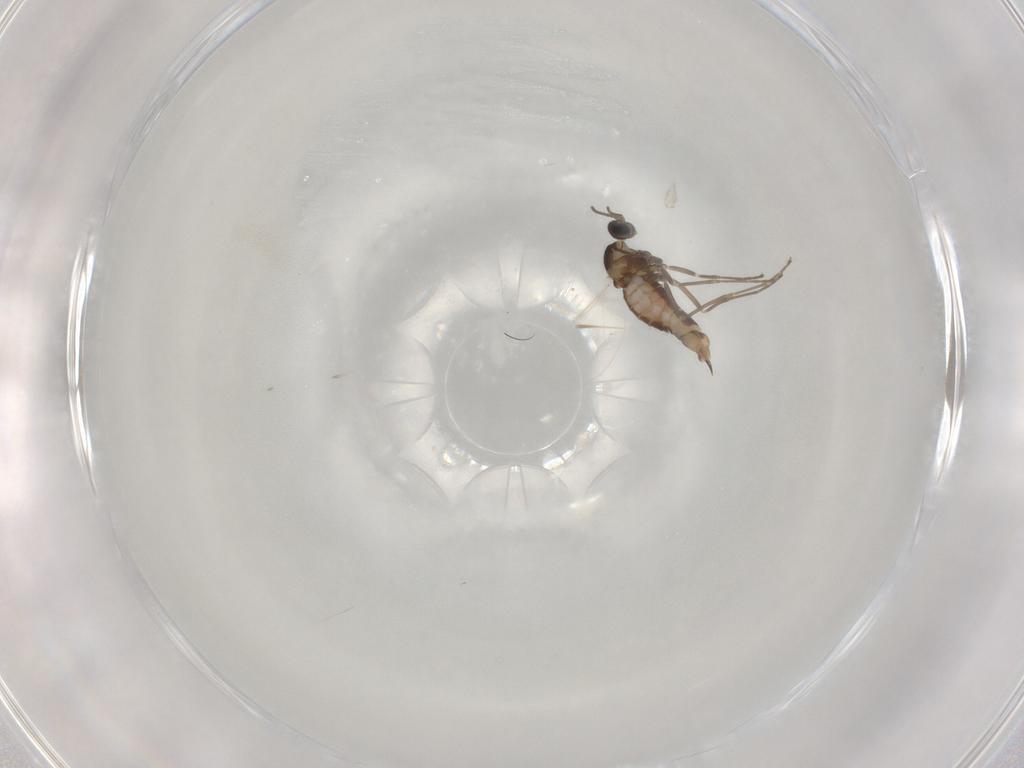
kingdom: Animalia
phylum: Arthropoda
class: Insecta
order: Diptera
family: Cecidomyiidae
